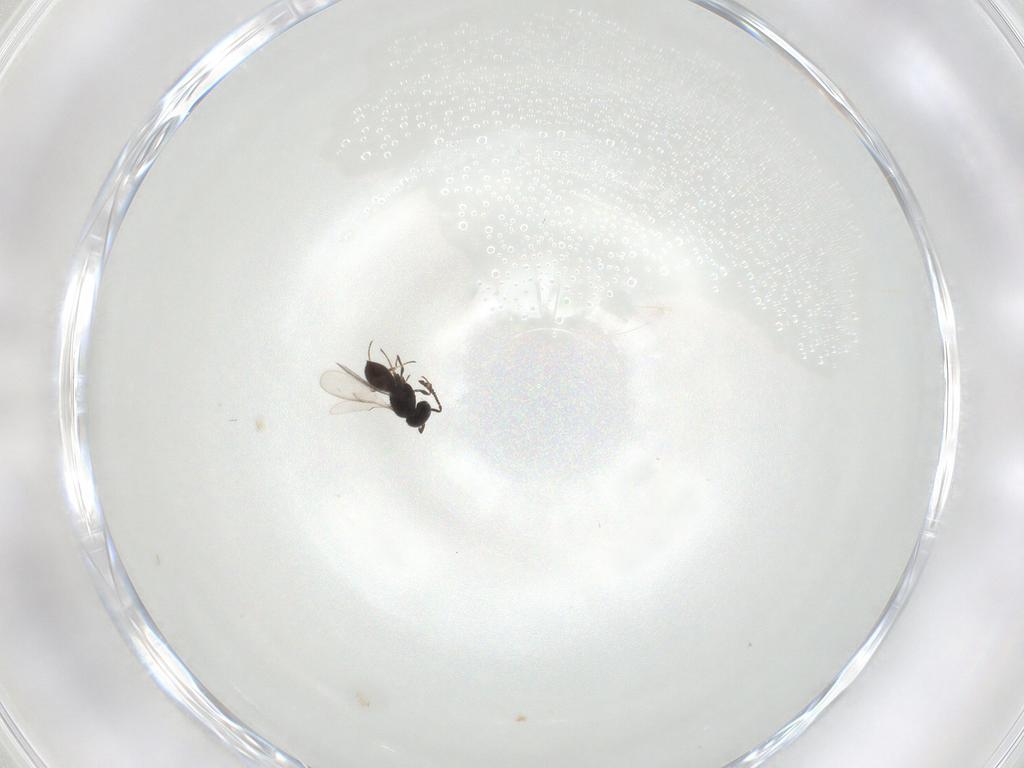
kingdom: Animalia
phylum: Arthropoda
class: Insecta
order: Hymenoptera
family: Scelionidae
